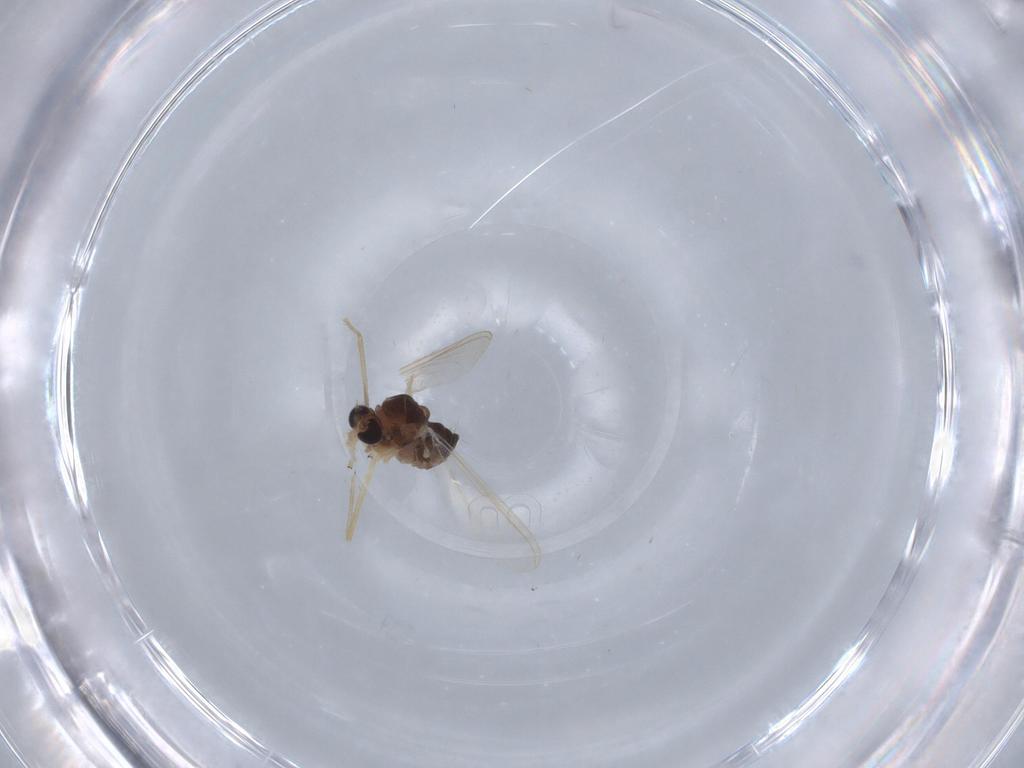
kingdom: Animalia
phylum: Arthropoda
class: Insecta
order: Diptera
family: Chironomidae
